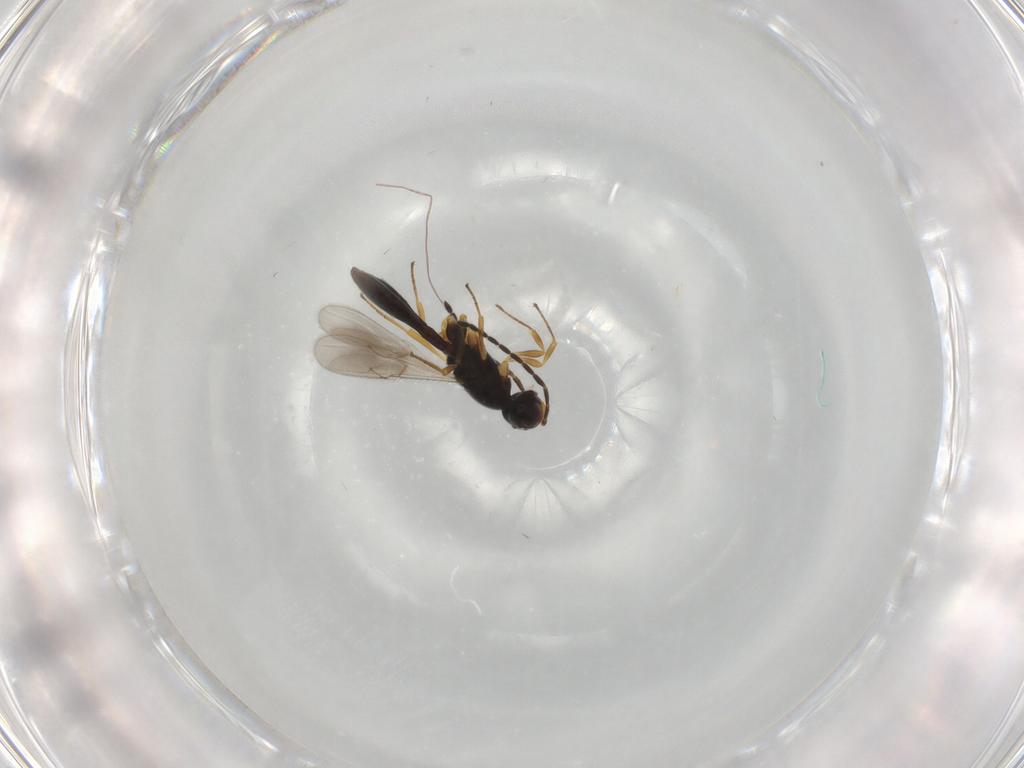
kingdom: Animalia
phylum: Arthropoda
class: Insecta
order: Hymenoptera
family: Scelionidae
